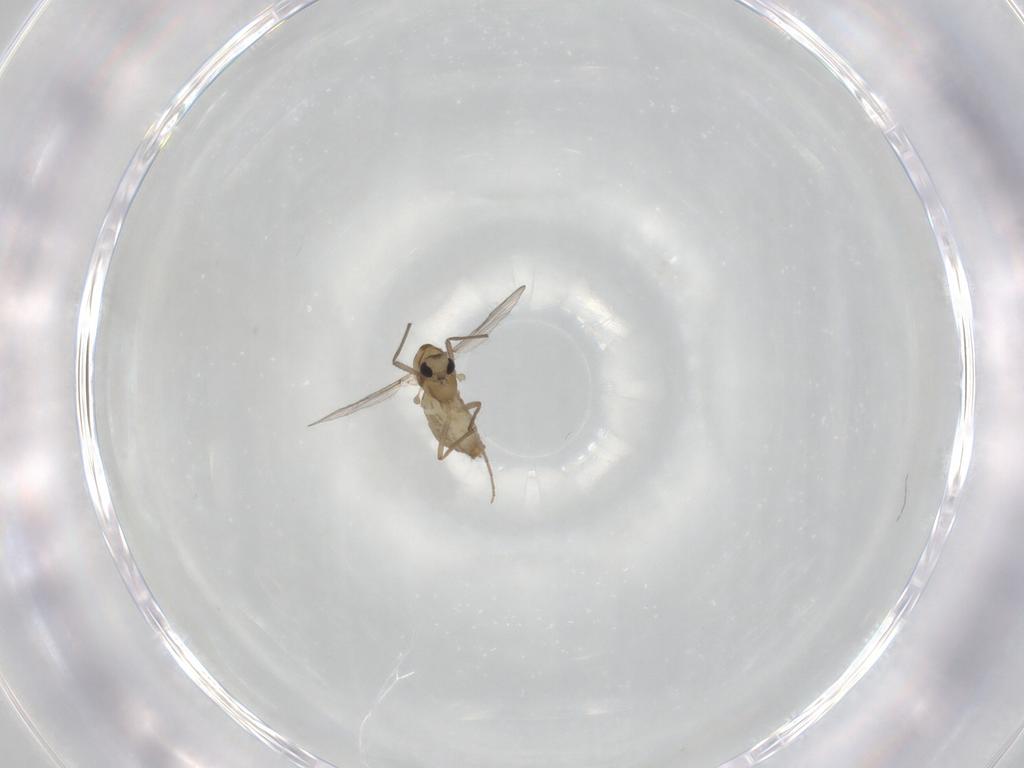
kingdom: Animalia
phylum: Arthropoda
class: Insecta
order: Diptera
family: Chironomidae
